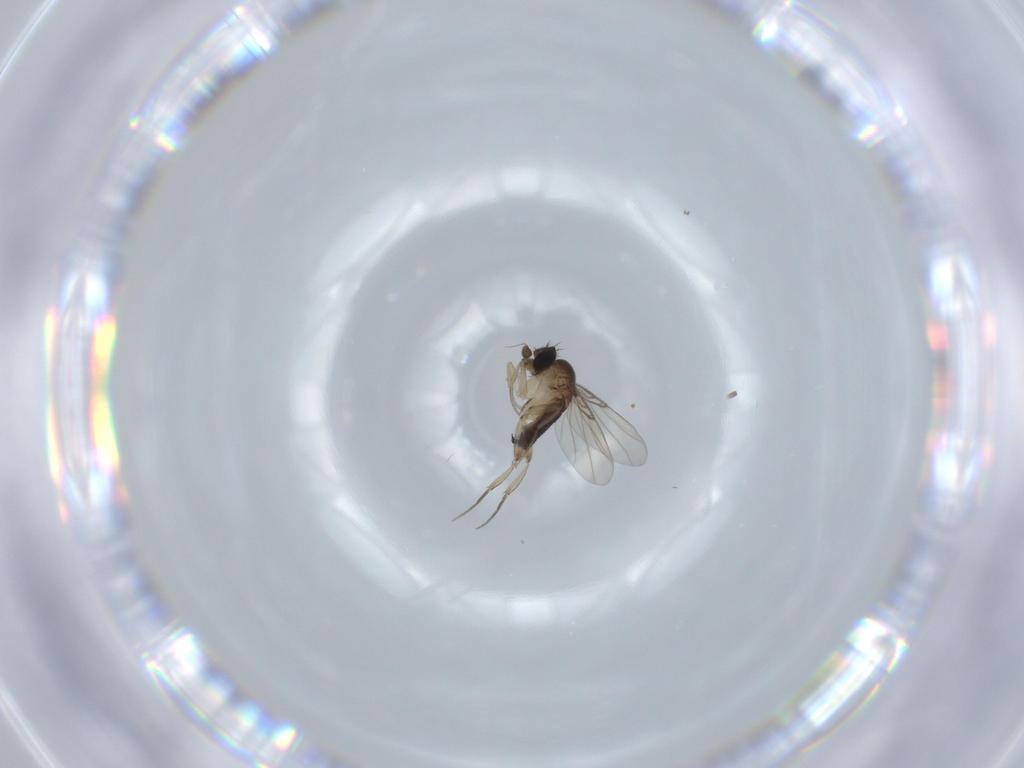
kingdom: Animalia
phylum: Arthropoda
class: Insecta
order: Diptera
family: Phoridae
